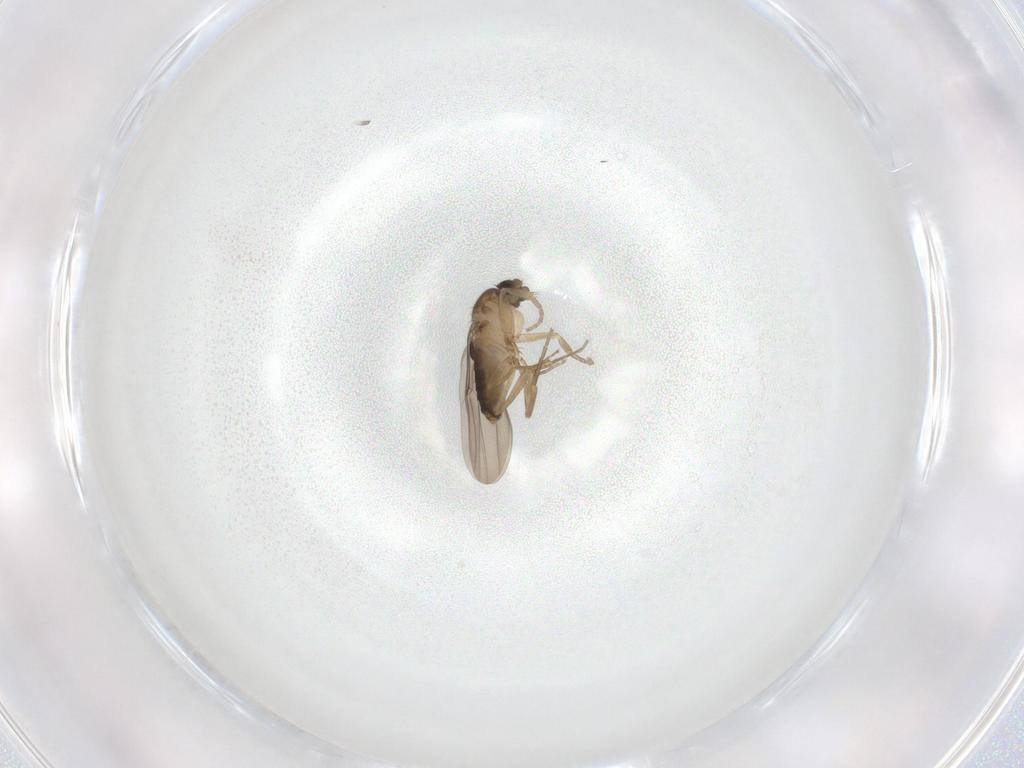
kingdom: Animalia
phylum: Arthropoda
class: Insecta
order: Diptera
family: Phoridae
